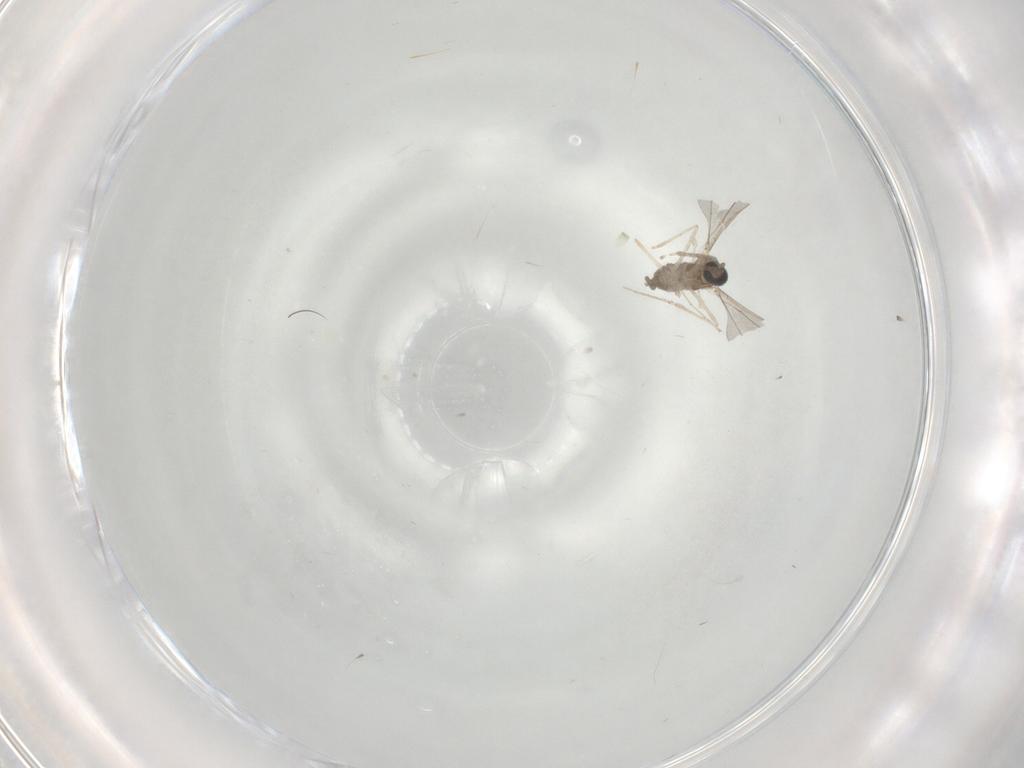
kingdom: Animalia
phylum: Arthropoda
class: Insecta
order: Diptera
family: Cecidomyiidae
